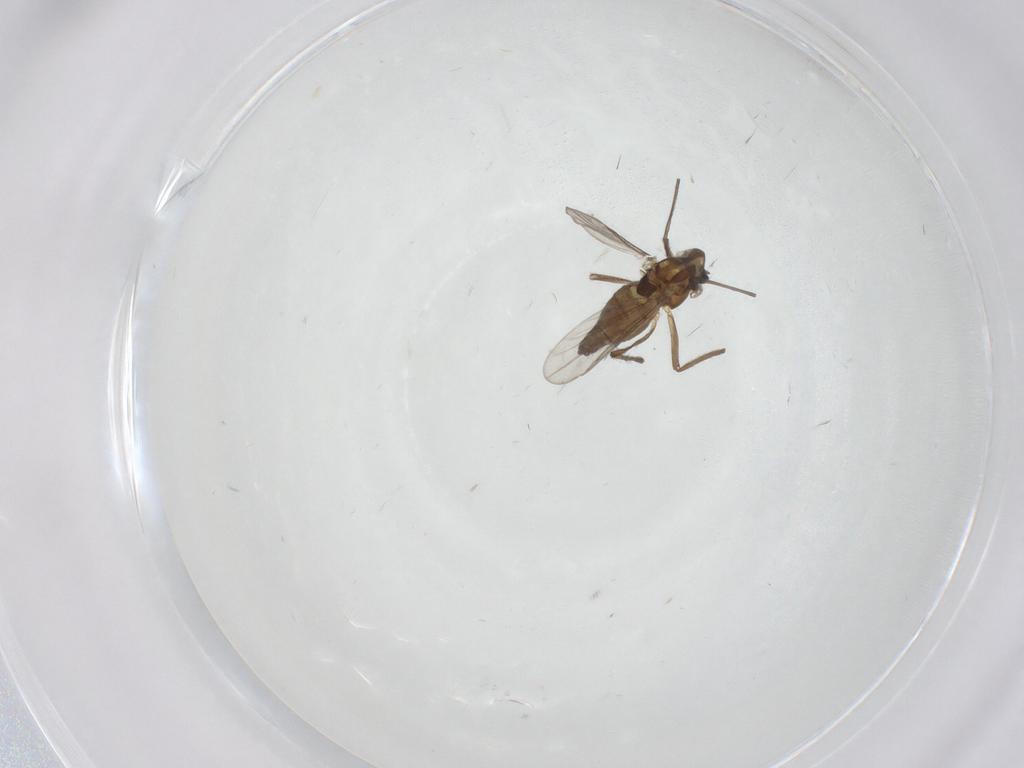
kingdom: Animalia
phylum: Arthropoda
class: Insecta
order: Diptera
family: Chironomidae
